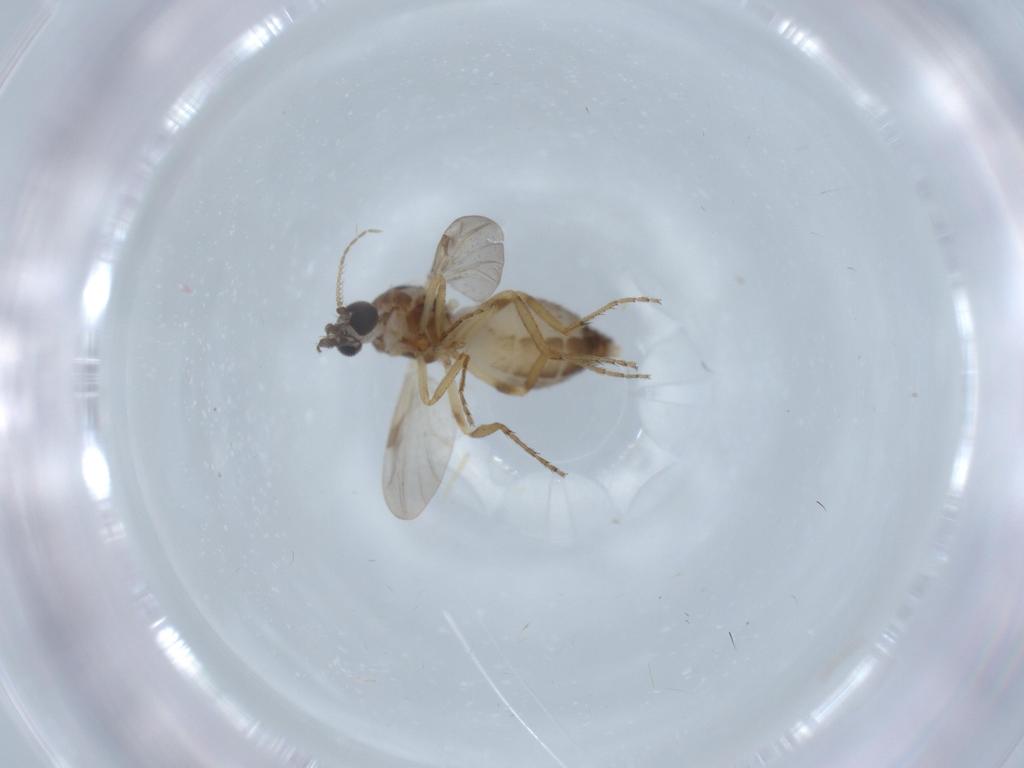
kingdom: Animalia
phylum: Arthropoda
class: Insecta
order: Diptera
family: Ceratopogonidae
